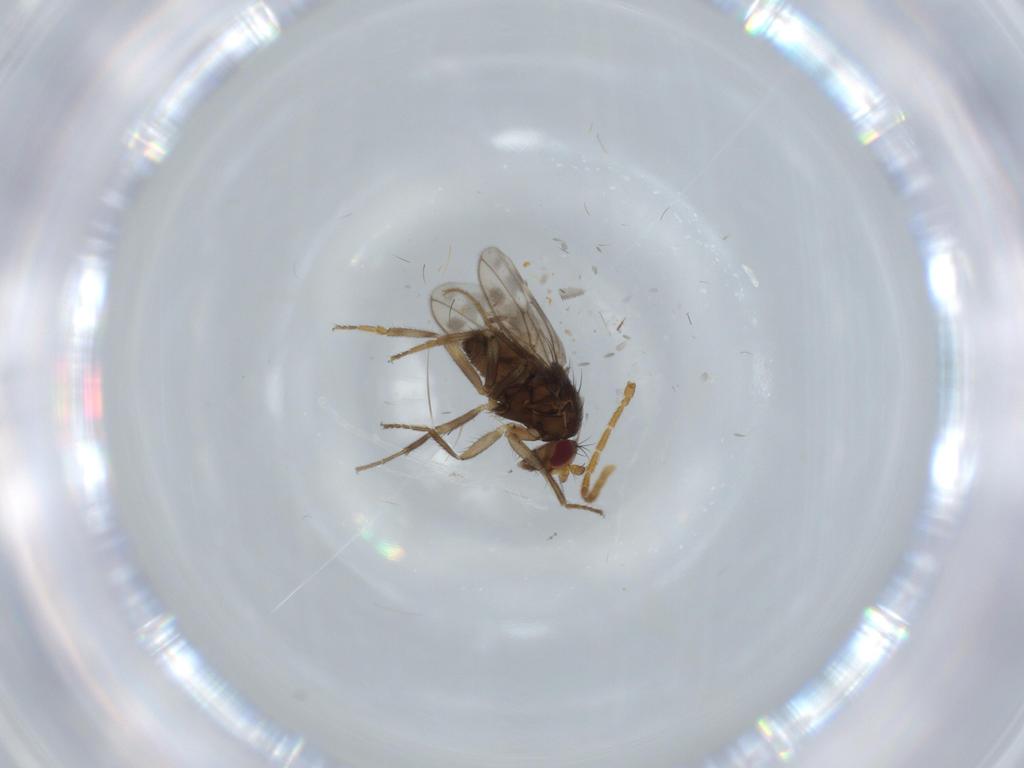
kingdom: Animalia
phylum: Arthropoda
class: Insecta
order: Diptera
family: Sphaeroceridae
